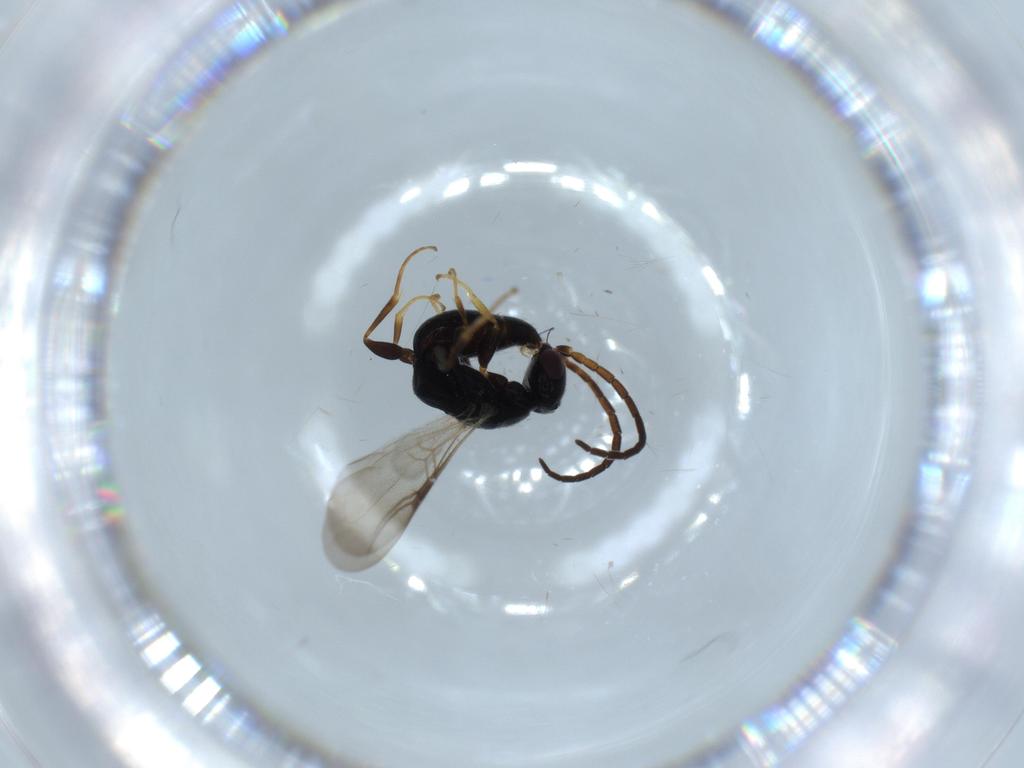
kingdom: Animalia
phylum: Arthropoda
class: Insecta
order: Hymenoptera
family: Bethylidae
